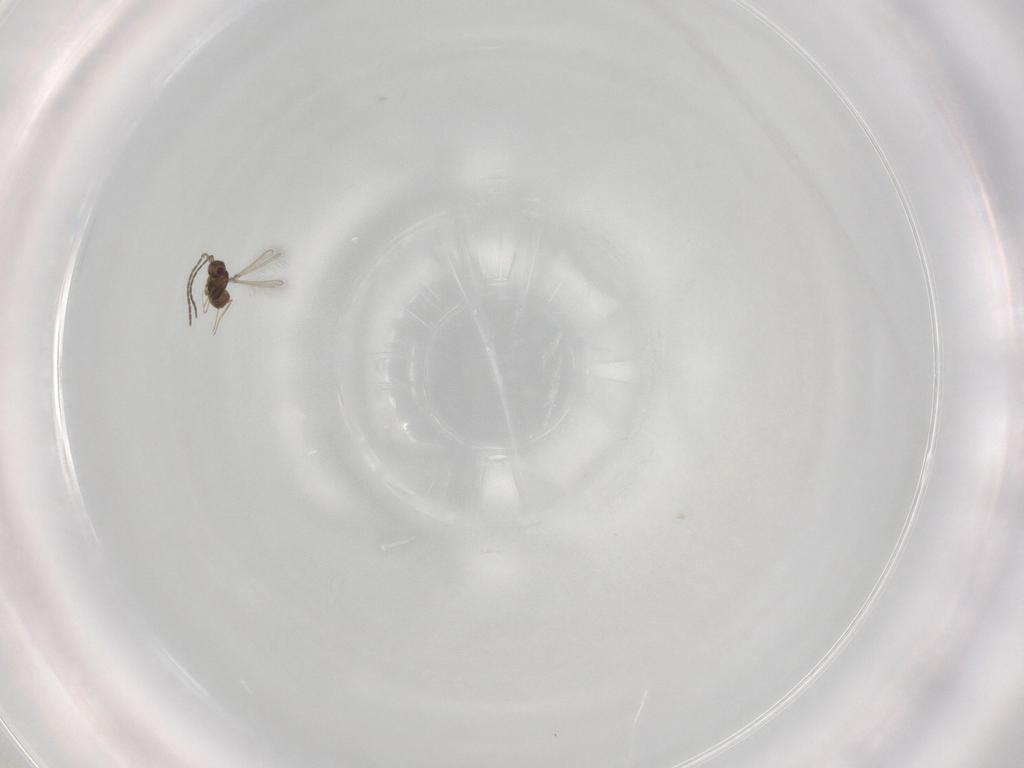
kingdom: Animalia
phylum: Arthropoda
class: Insecta
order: Hymenoptera
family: Mymaridae
